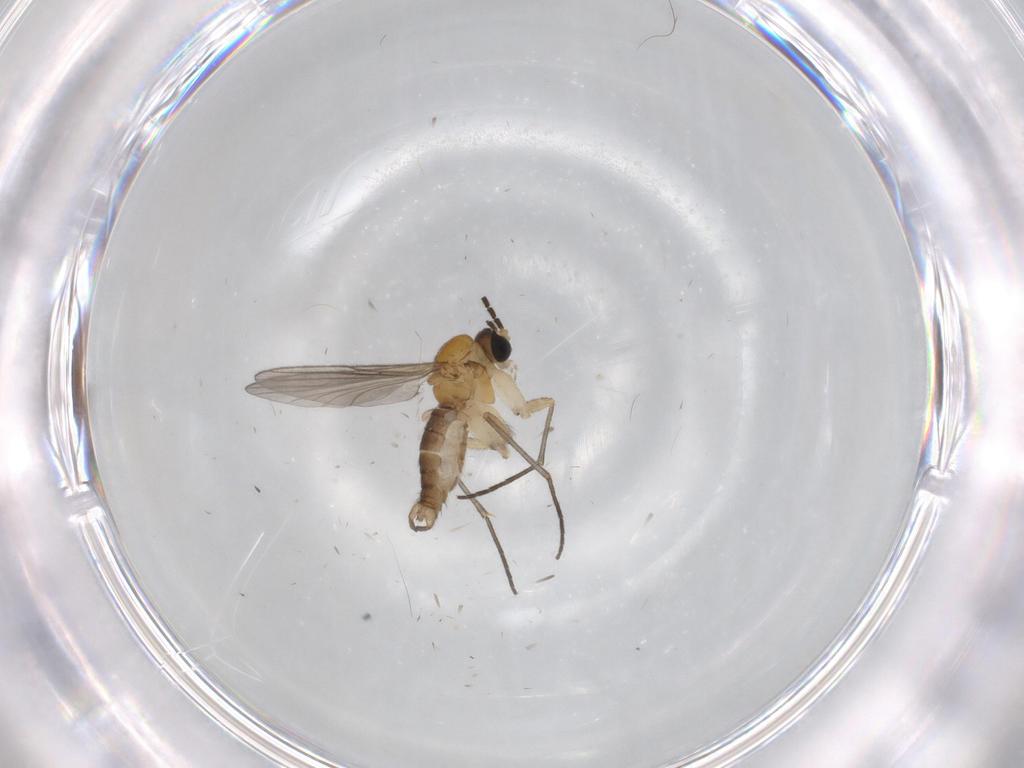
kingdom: Animalia
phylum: Arthropoda
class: Insecta
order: Diptera
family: Sciaridae
